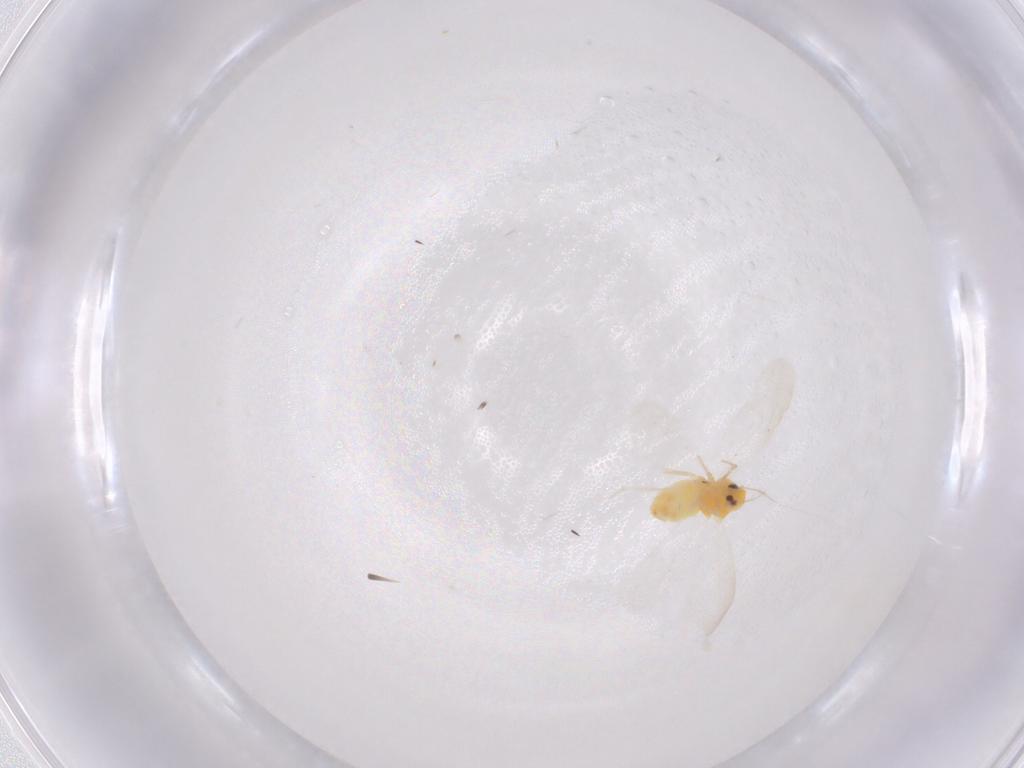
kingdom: Animalia
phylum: Arthropoda
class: Insecta
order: Hemiptera
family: Aleyrodidae
